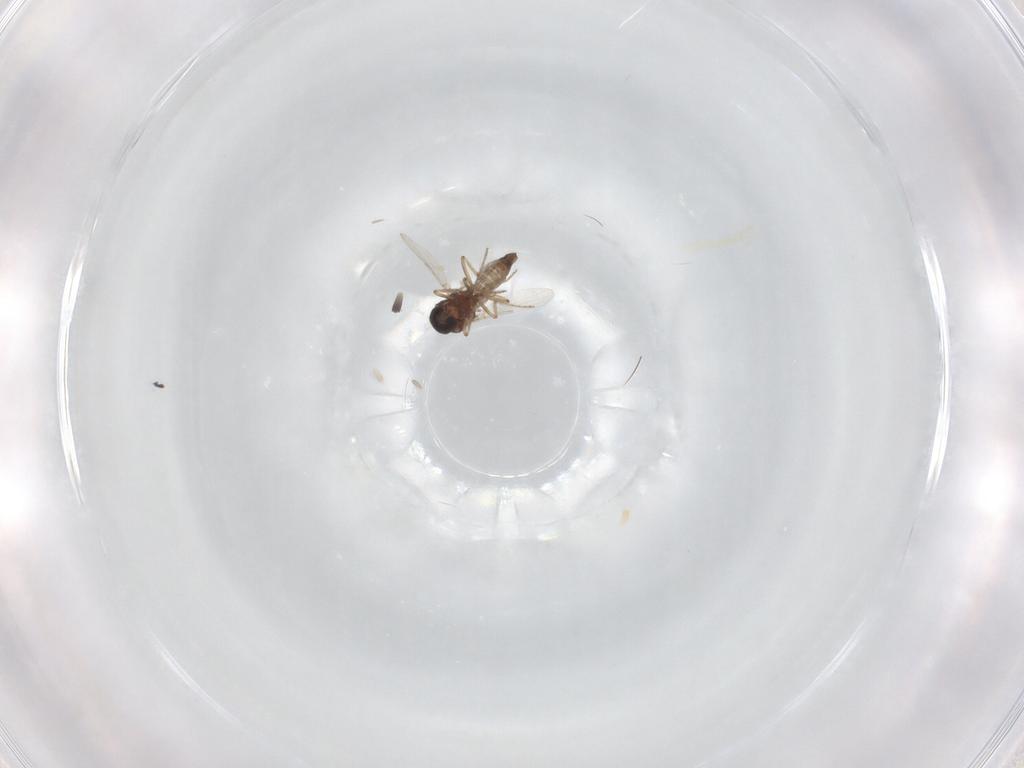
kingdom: Animalia
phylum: Arthropoda
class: Insecta
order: Diptera
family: Ceratopogonidae
